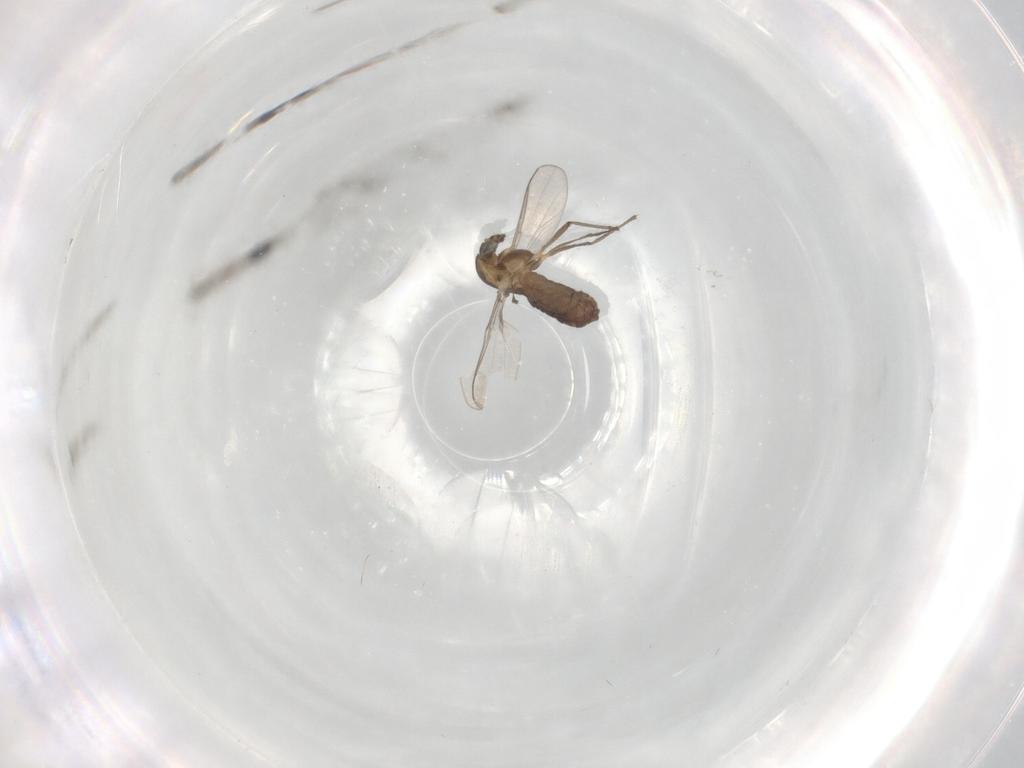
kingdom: Animalia
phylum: Arthropoda
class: Insecta
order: Diptera
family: Chironomidae
